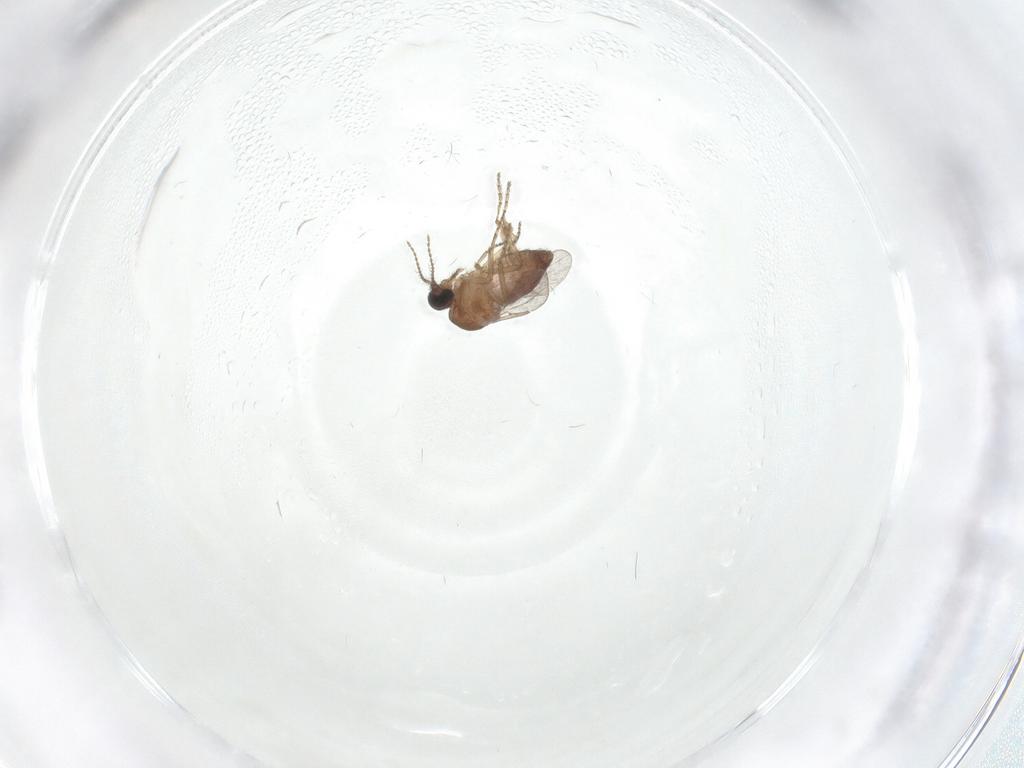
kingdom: Animalia
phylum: Arthropoda
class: Insecta
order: Diptera
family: Ceratopogonidae
